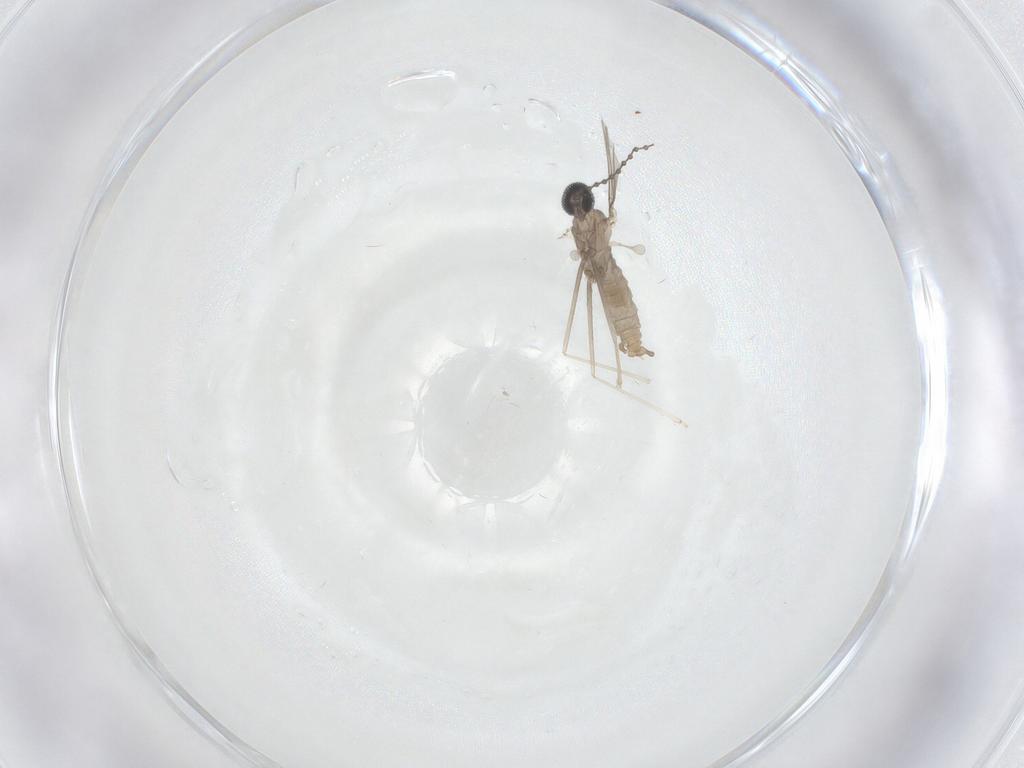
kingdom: Animalia
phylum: Arthropoda
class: Insecta
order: Diptera
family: Cecidomyiidae
